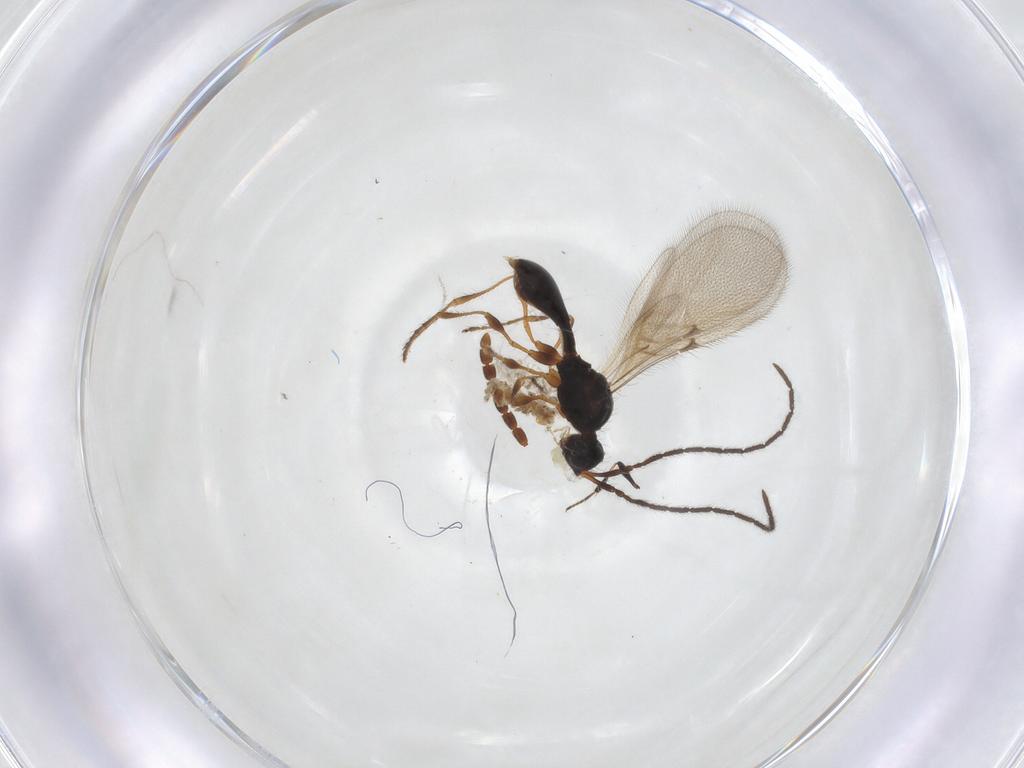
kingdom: Animalia
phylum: Arthropoda
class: Insecta
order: Hymenoptera
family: Diapriidae
